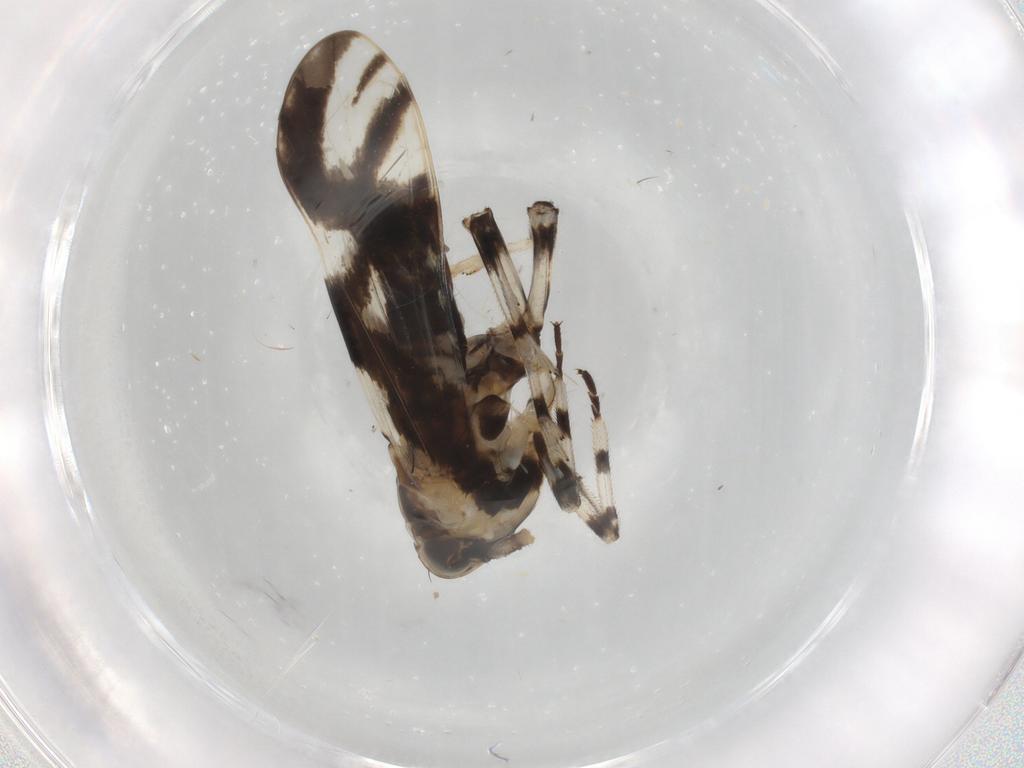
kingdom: Animalia
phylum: Arthropoda
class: Insecta
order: Hemiptera
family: Delphacidae
